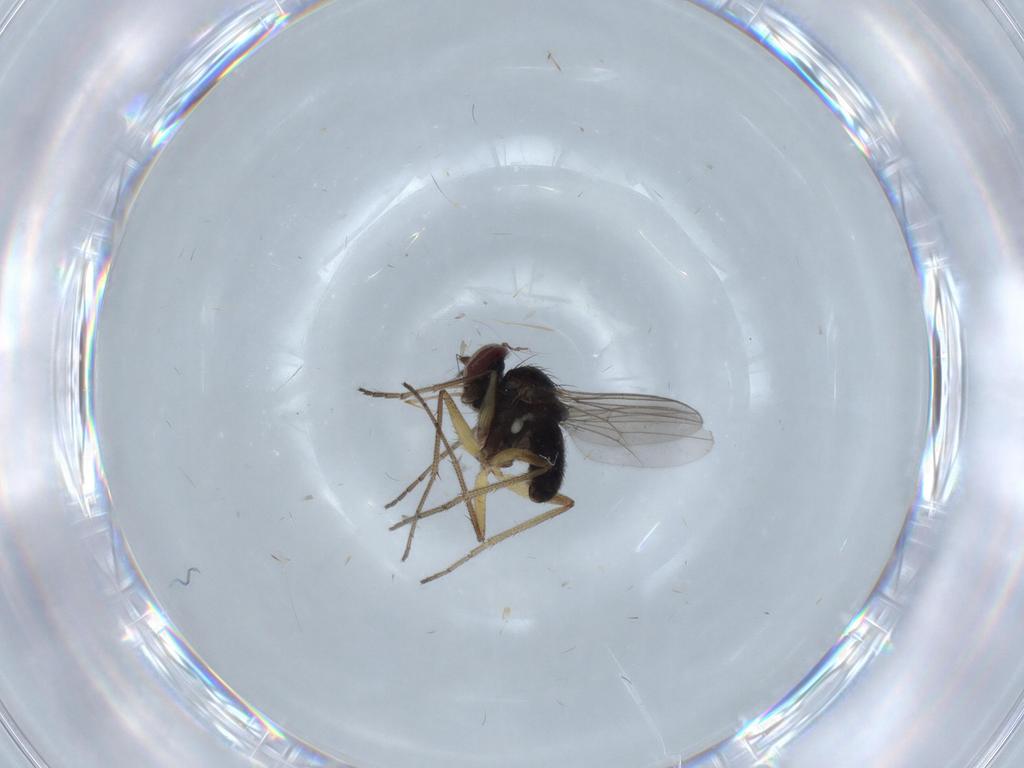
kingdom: Animalia
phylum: Arthropoda
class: Insecta
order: Diptera
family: Dolichopodidae
